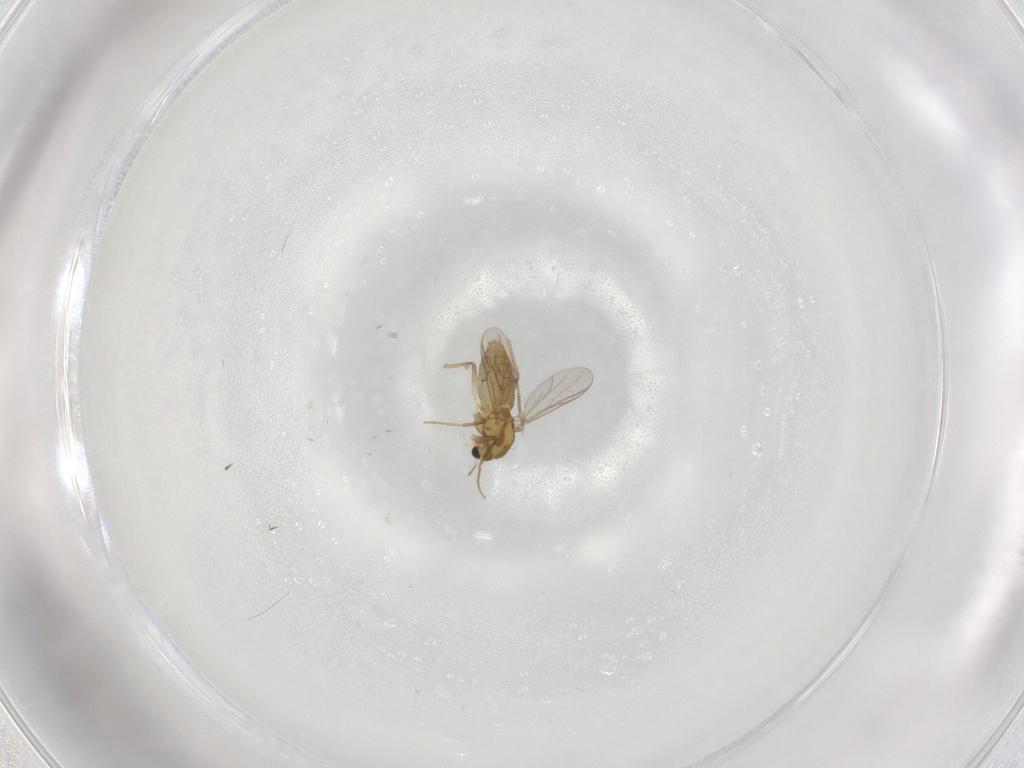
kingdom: Animalia
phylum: Arthropoda
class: Insecta
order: Diptera
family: Chironomidae
